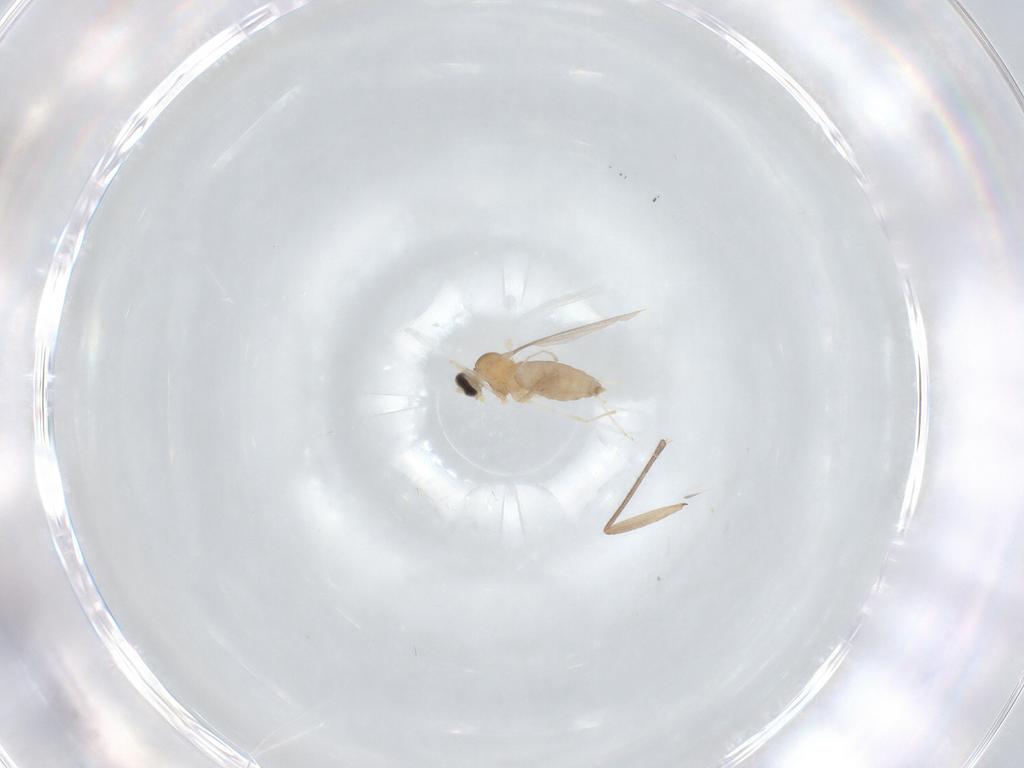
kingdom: Animalia
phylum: Arthropoda
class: Insecta
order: Diptera
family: Cecidomyiidae
